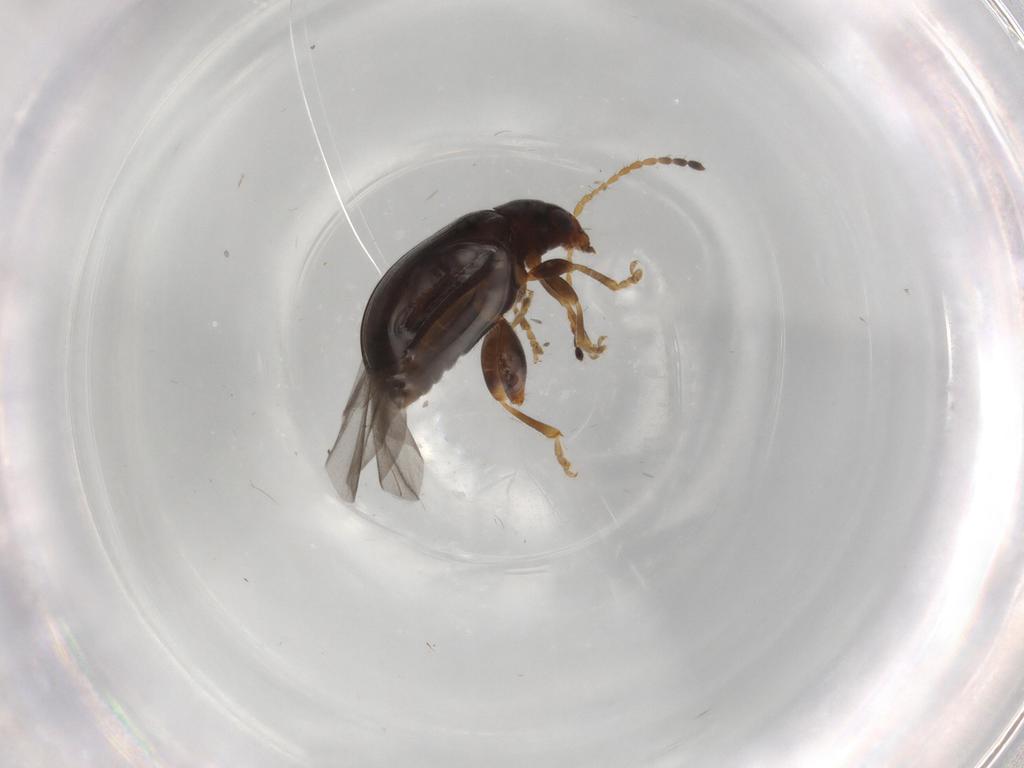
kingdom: Animalia
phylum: Arthropoda
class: Insecta
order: Coleoptera
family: Chrysomelidae
